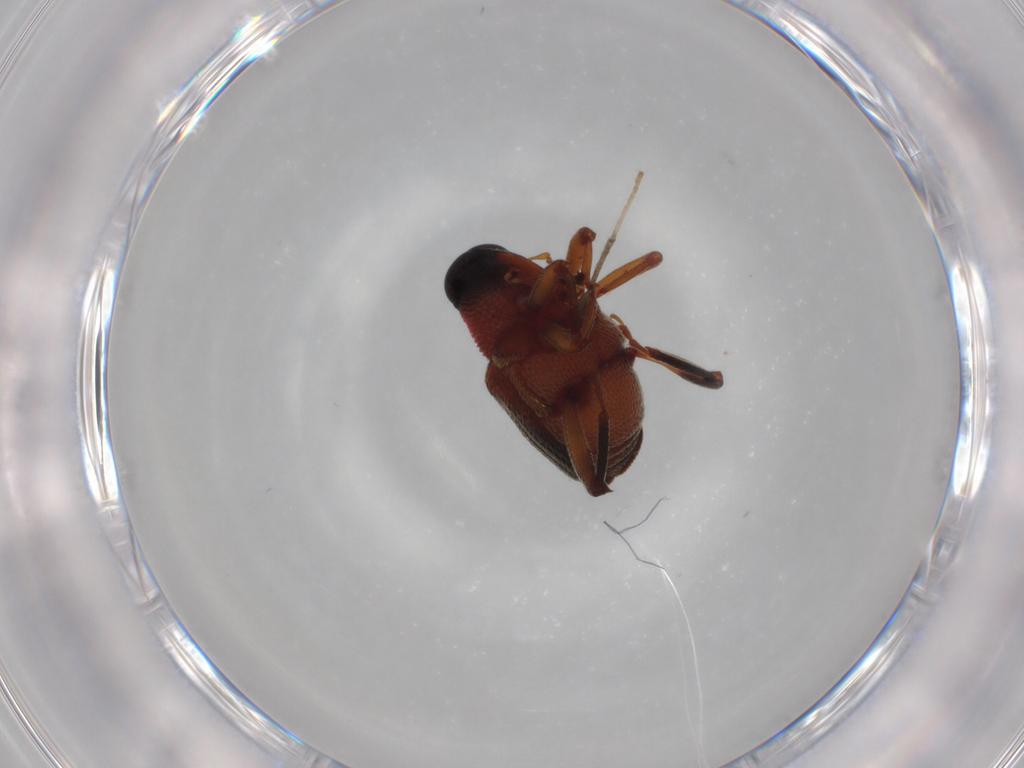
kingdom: Animalia
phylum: Arthropoda
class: Insecta
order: Coleoptera
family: Curculionidae
